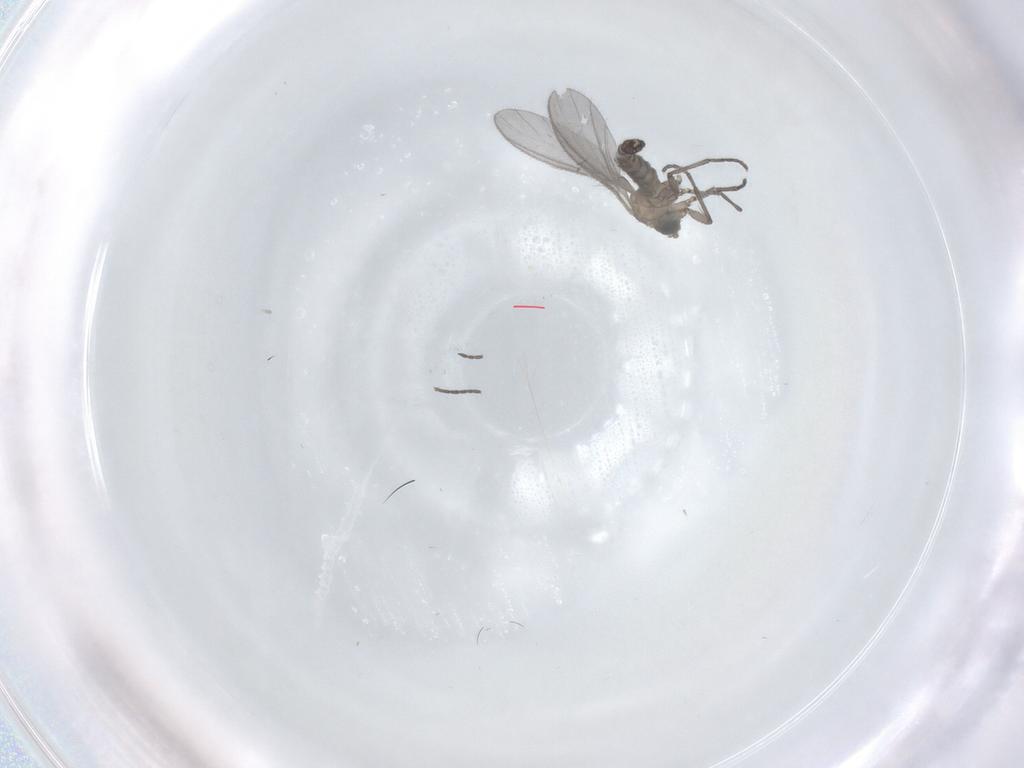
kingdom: Animalia
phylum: Arthropoda
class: Insecta
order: Diptera
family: Sciaridae
